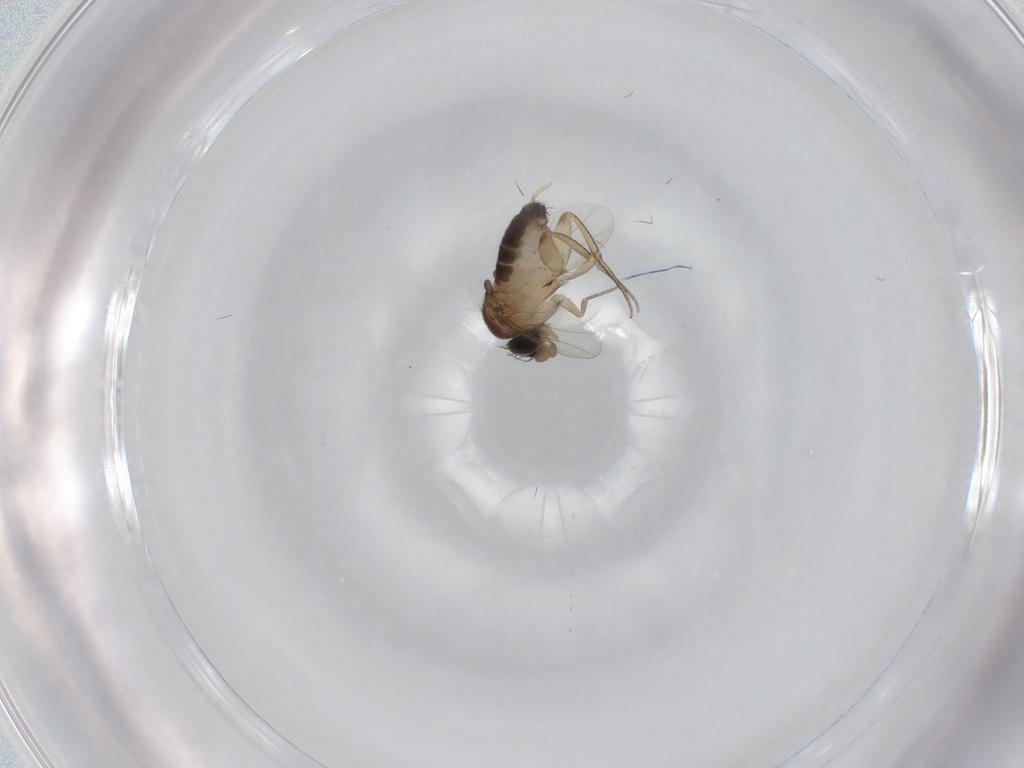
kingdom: Animalia
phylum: Arthropoda
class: Insecta
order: Diptera
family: Phoridae
